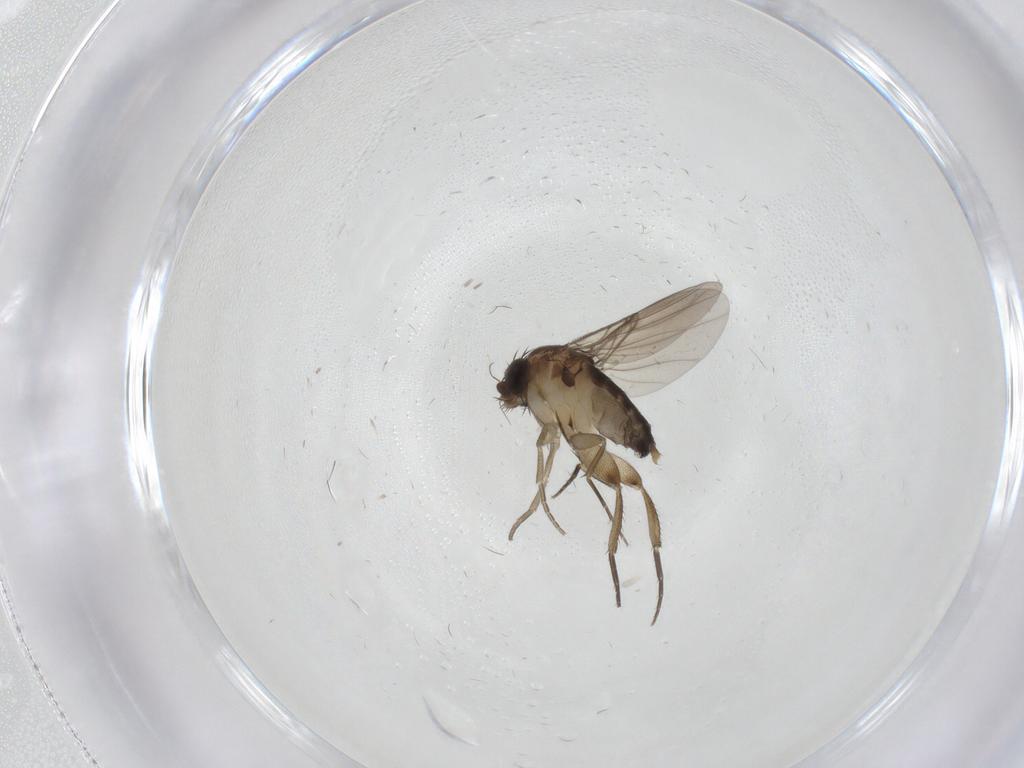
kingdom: Animalia
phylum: Arthropoda
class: Insecta
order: Diptera
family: Phoridae
